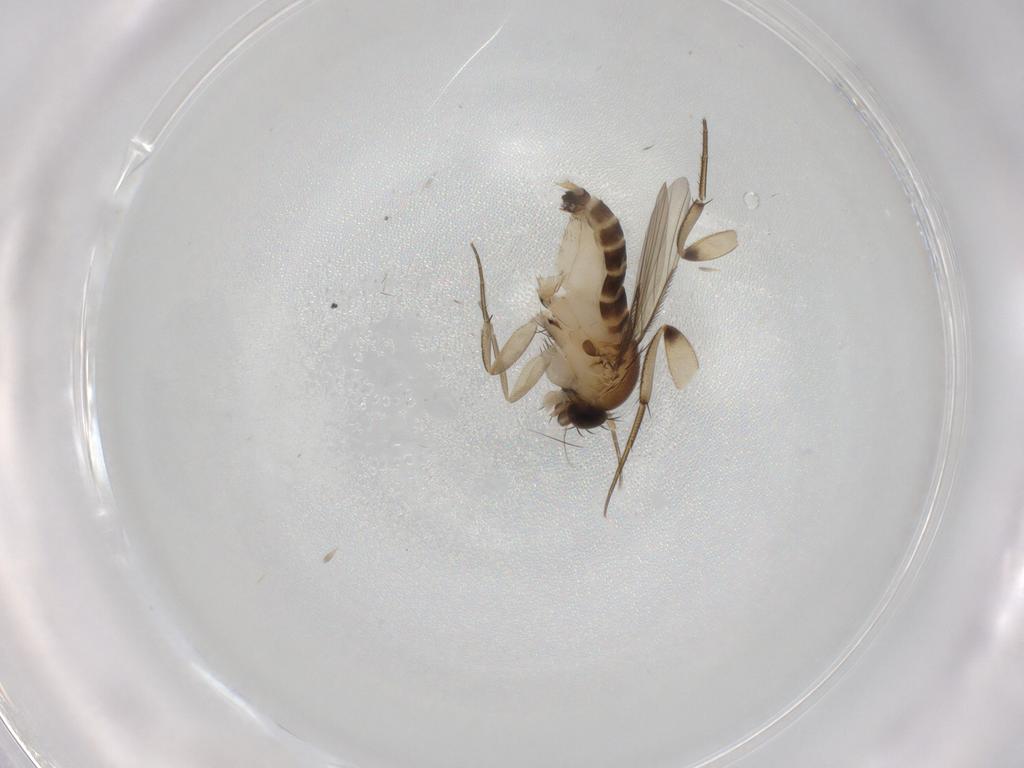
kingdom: Animalia
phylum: Arthropoda
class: Insecta
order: Diptera
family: Phoridae
